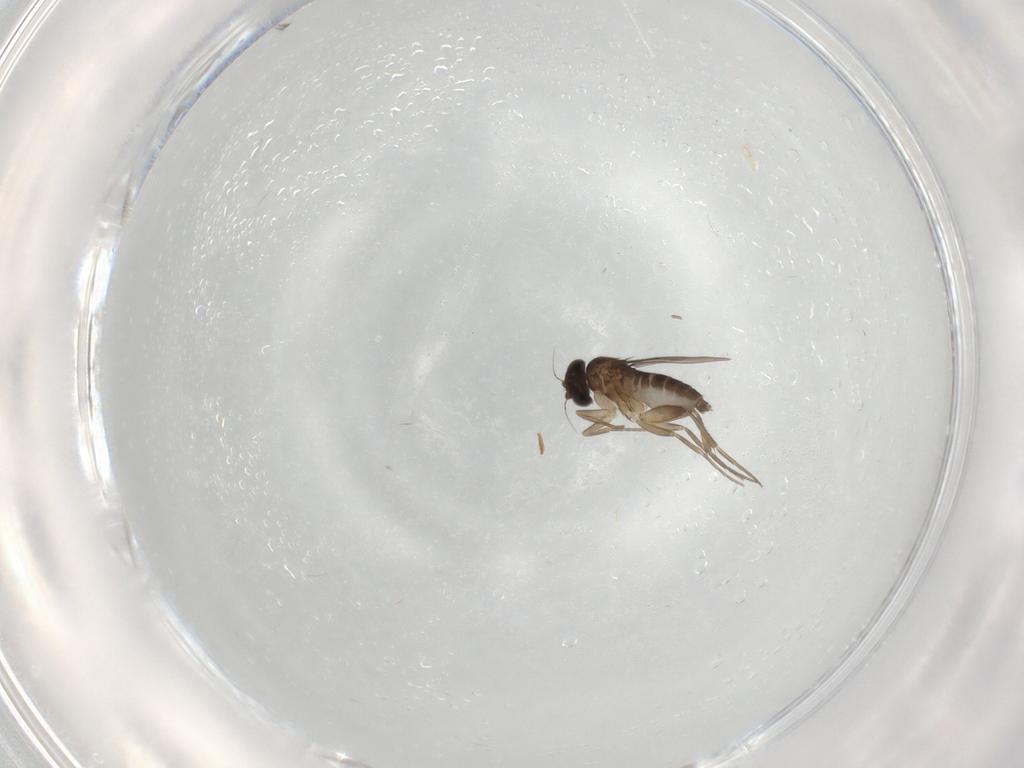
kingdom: Animalia
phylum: Arthropoda
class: Insecta
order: Diptera
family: Phoridae
